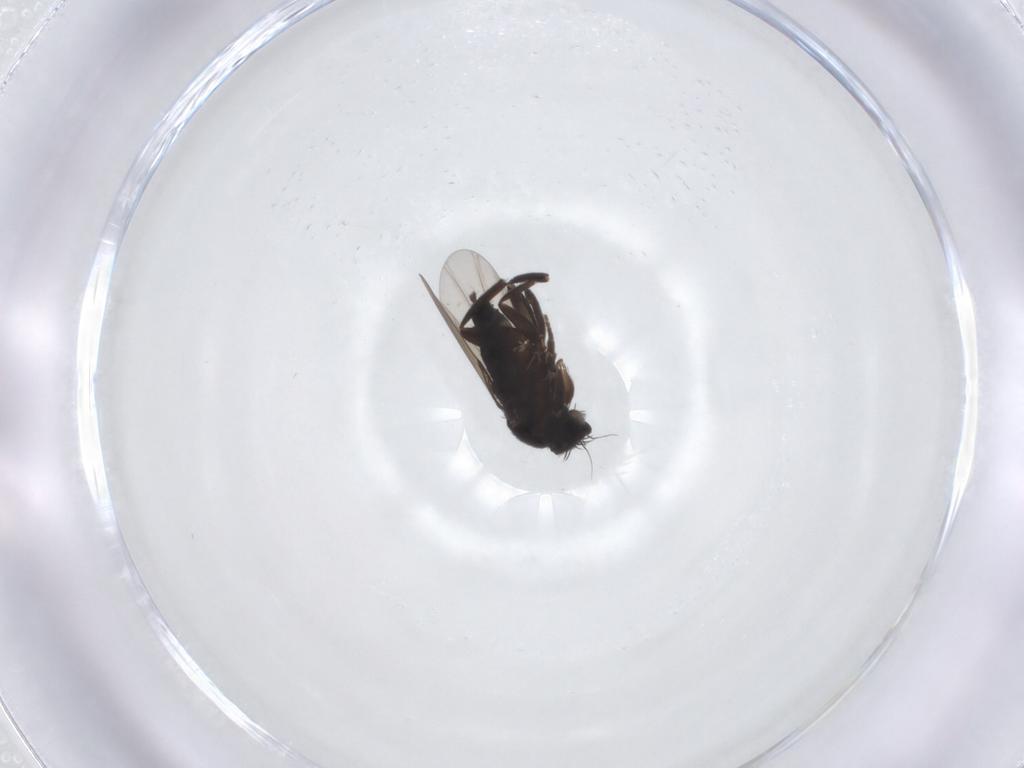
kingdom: Animalia
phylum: Arthropoda
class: Insecta
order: Diptera
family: Phoridae
